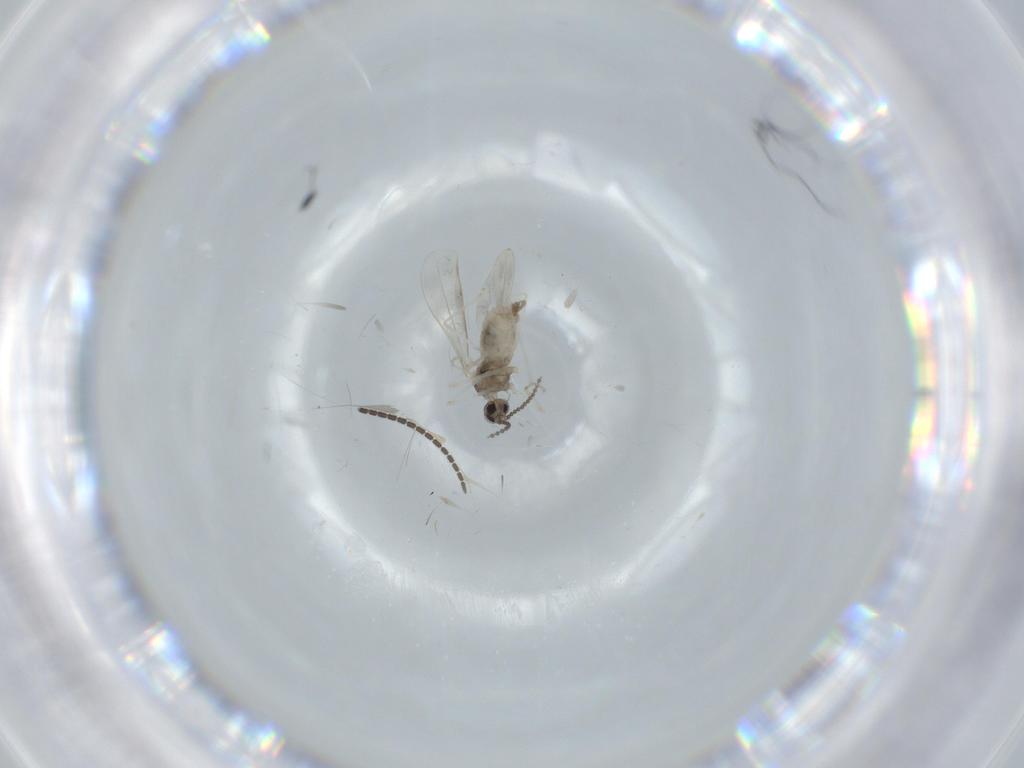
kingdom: Animalia
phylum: Arthropoda
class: Insecta
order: Diptera
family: Sciaridae
